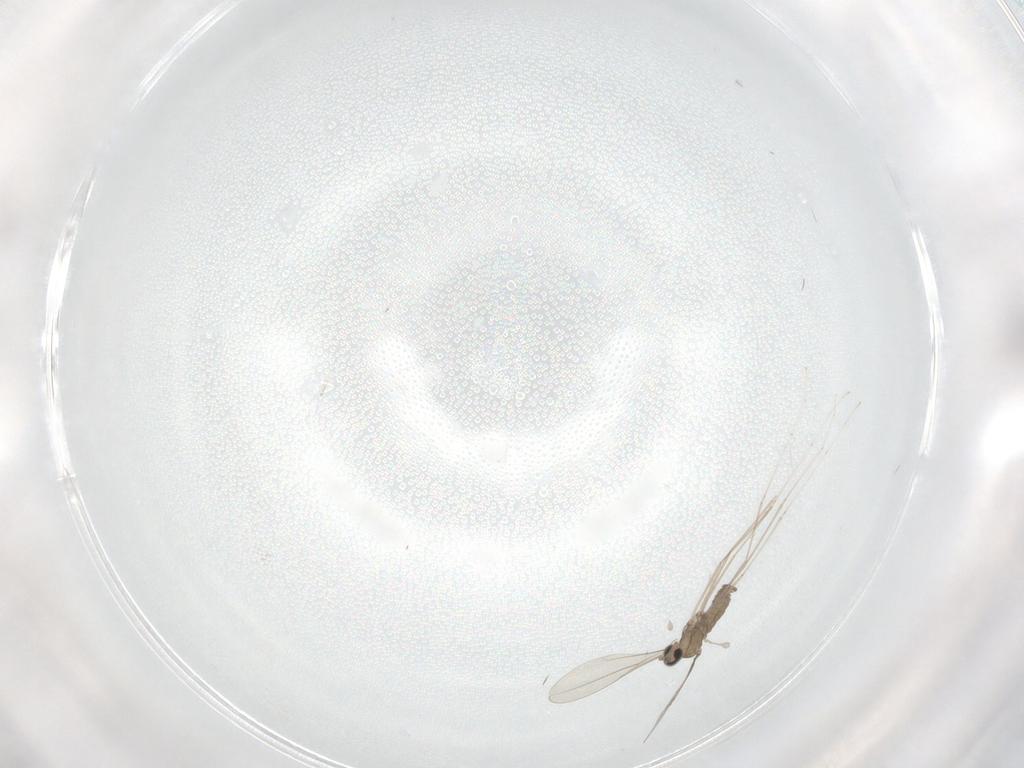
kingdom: Animalia
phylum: Arthropoda
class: Insecta
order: Diptera
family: Cecidomyiidae
